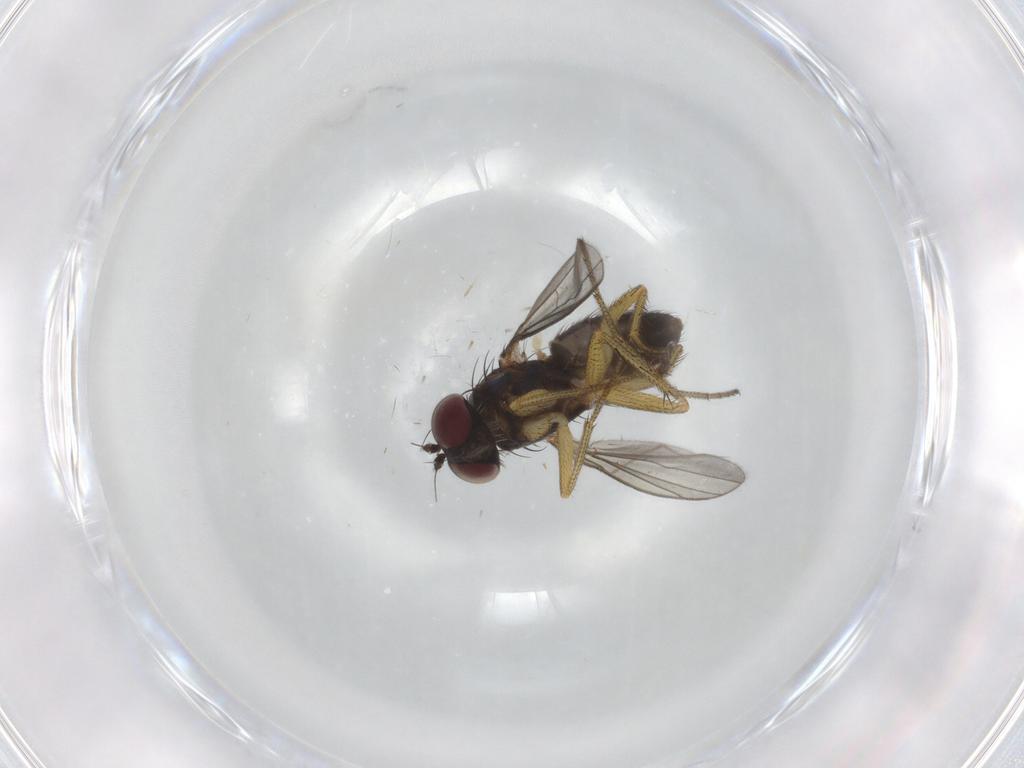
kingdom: Animalia
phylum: Arthropoda
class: Insecta
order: Diptera
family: Dolichopodidae
